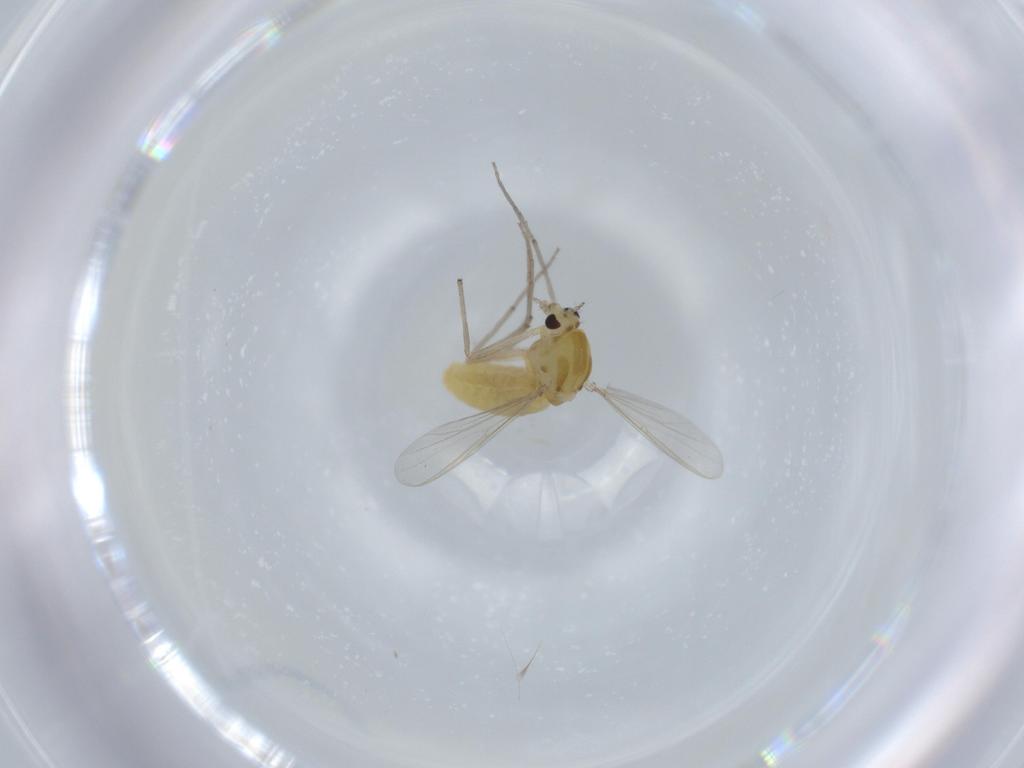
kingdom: Animalia
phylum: Arthropoda
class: Insecta
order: Diptera
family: Chironomidae
